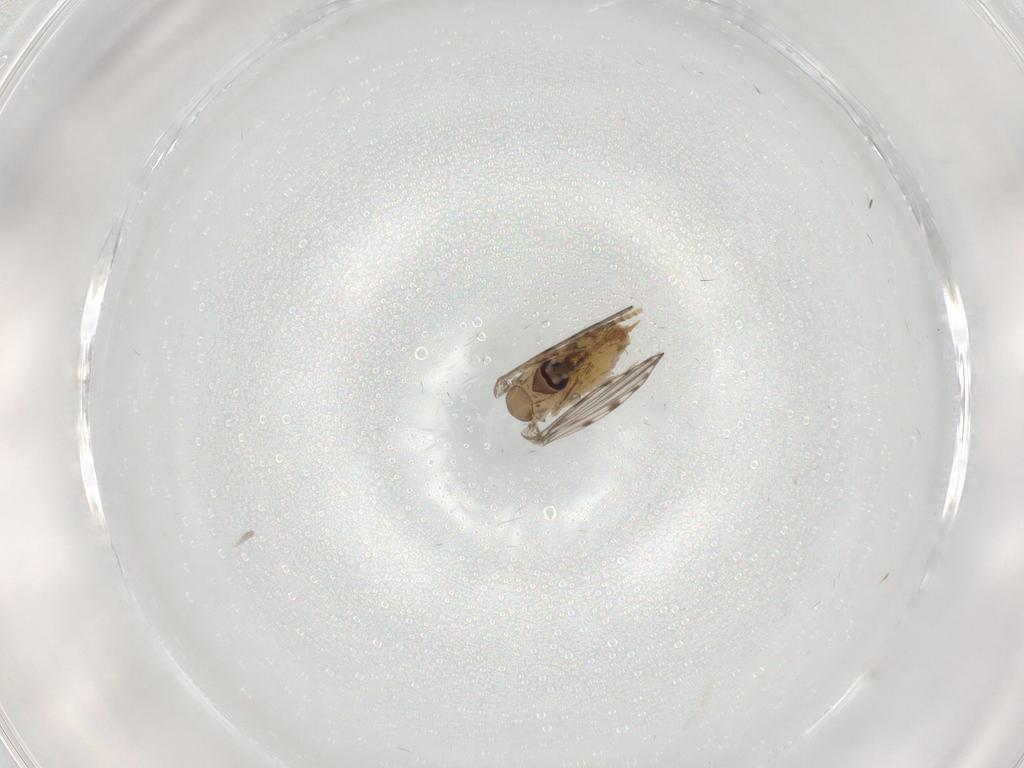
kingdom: Animalia
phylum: Arthropoda
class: Insecta
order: Diptera
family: Psychodidae
